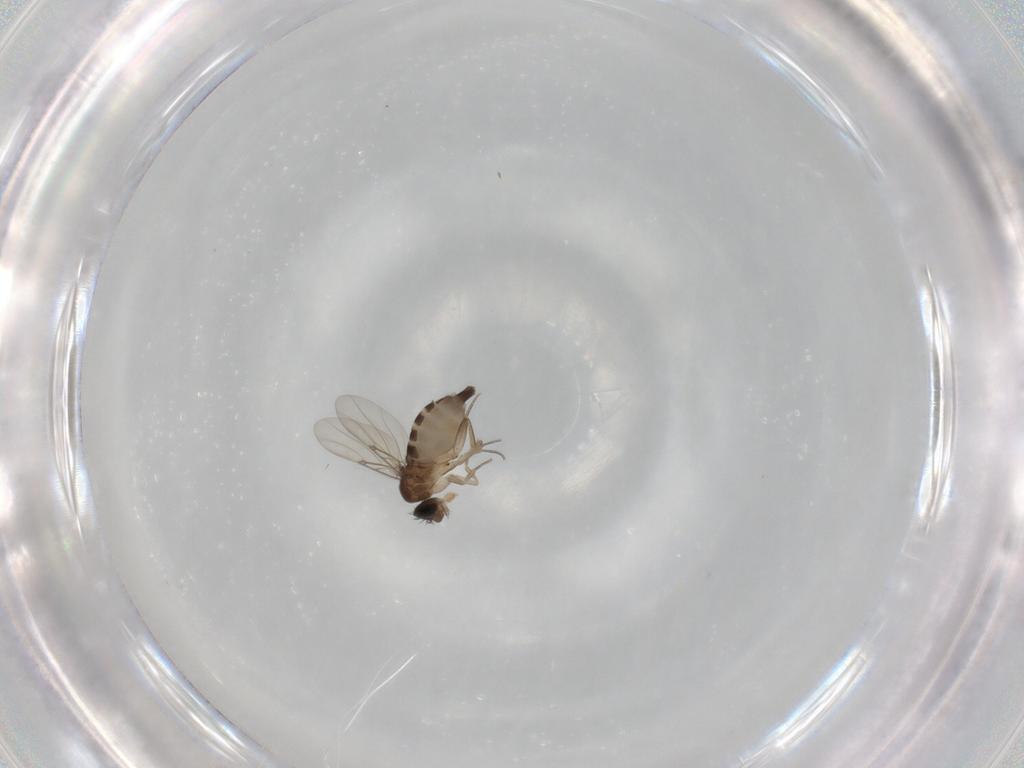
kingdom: Animalia
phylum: Arthropoda
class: Insecta
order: Diptera
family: Phoridae
